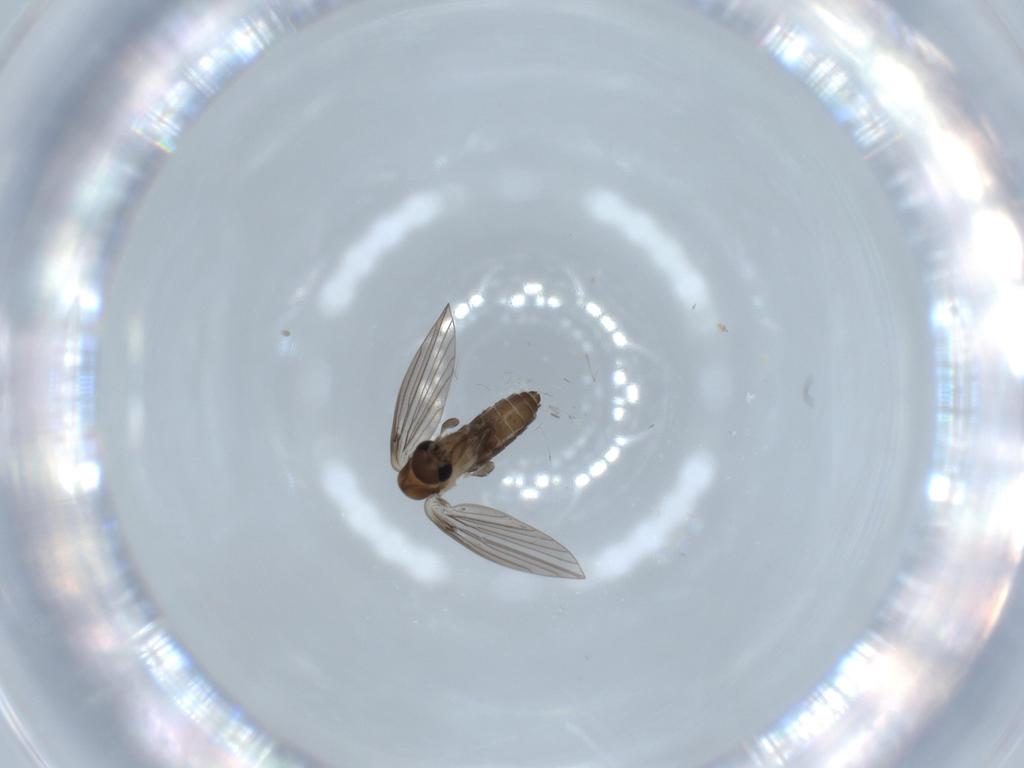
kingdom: Animalia
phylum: Arthropoda
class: Insecta
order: Diptera
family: Psychodidae
